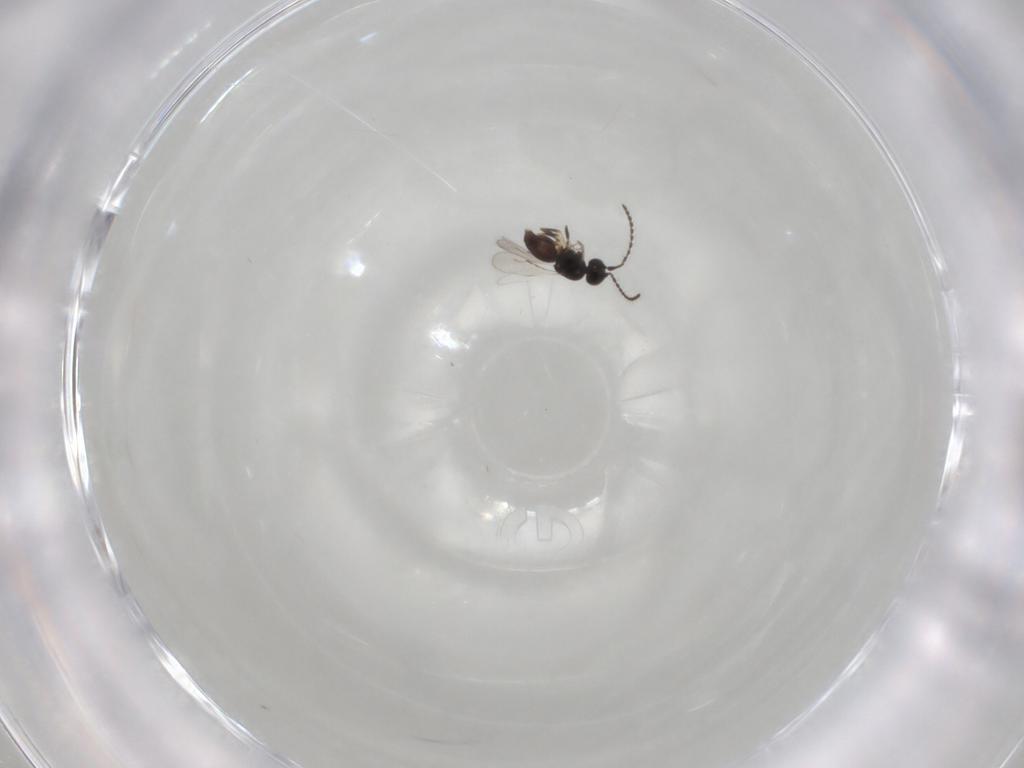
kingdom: Animalia
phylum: Arthropoda
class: Insecta
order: Hymenoptera
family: Ceraphronidae
